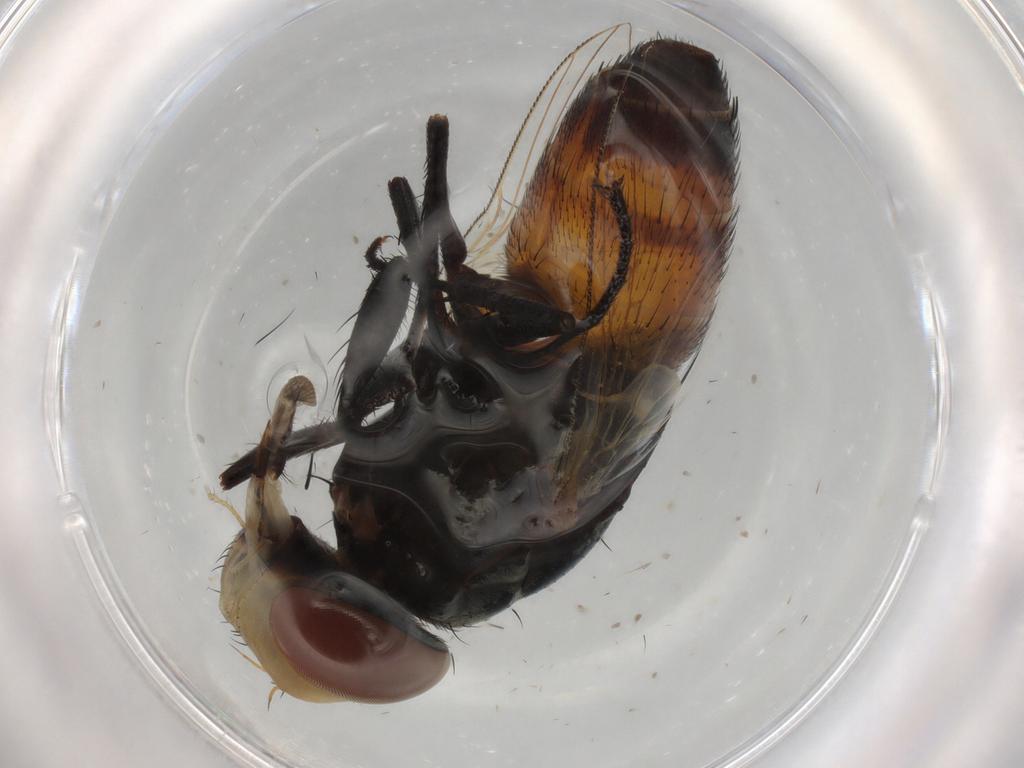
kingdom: Animalia
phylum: Arthropoda
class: Insecta
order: Diptera
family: Sarcophagidae
